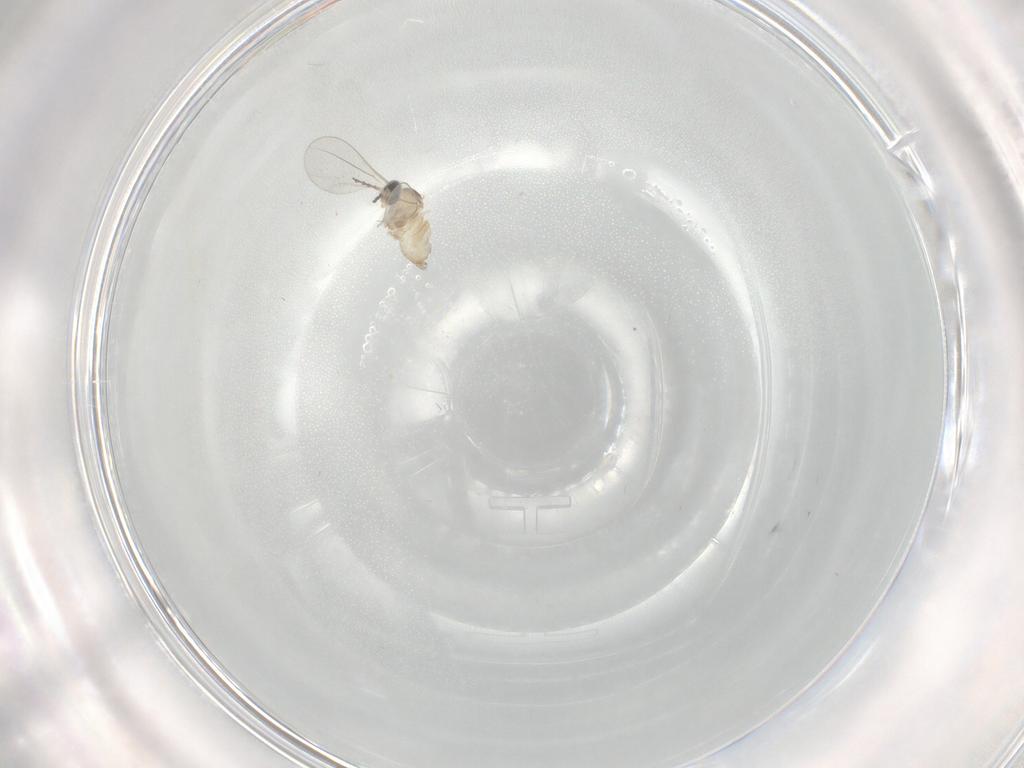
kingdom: Animalia
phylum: Arthropoda
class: Insecta
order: Diptera
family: Cecidomyiidae
